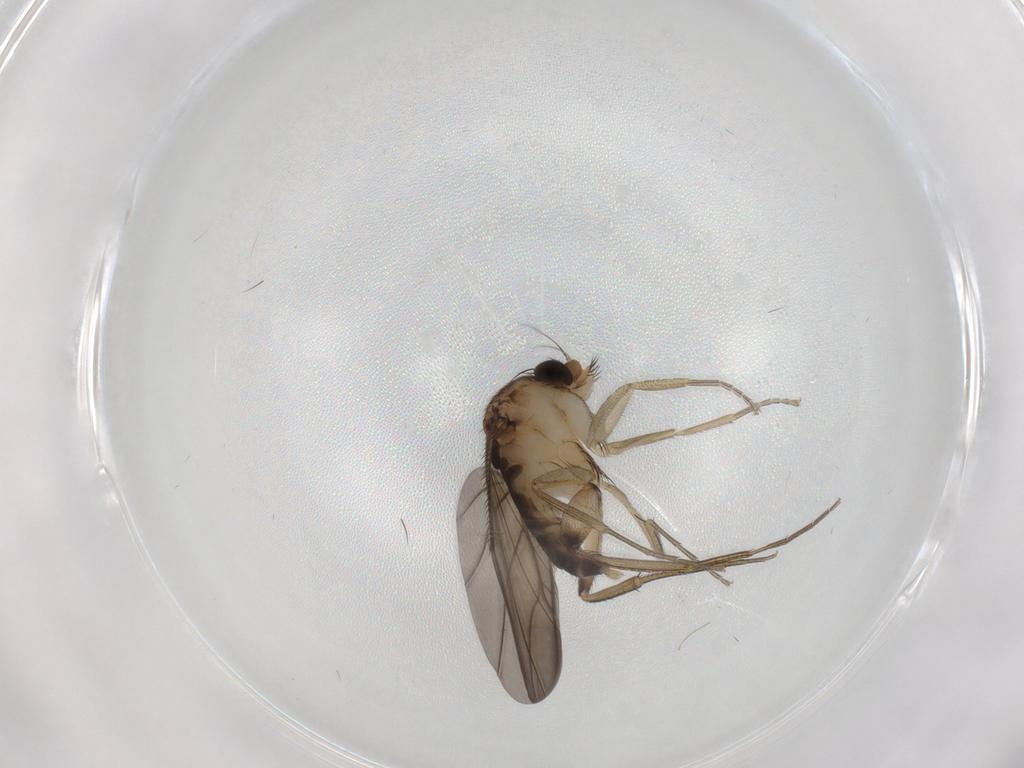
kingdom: Animalia
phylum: Arthropoda
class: Insecta
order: Diptera
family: Phoridae
